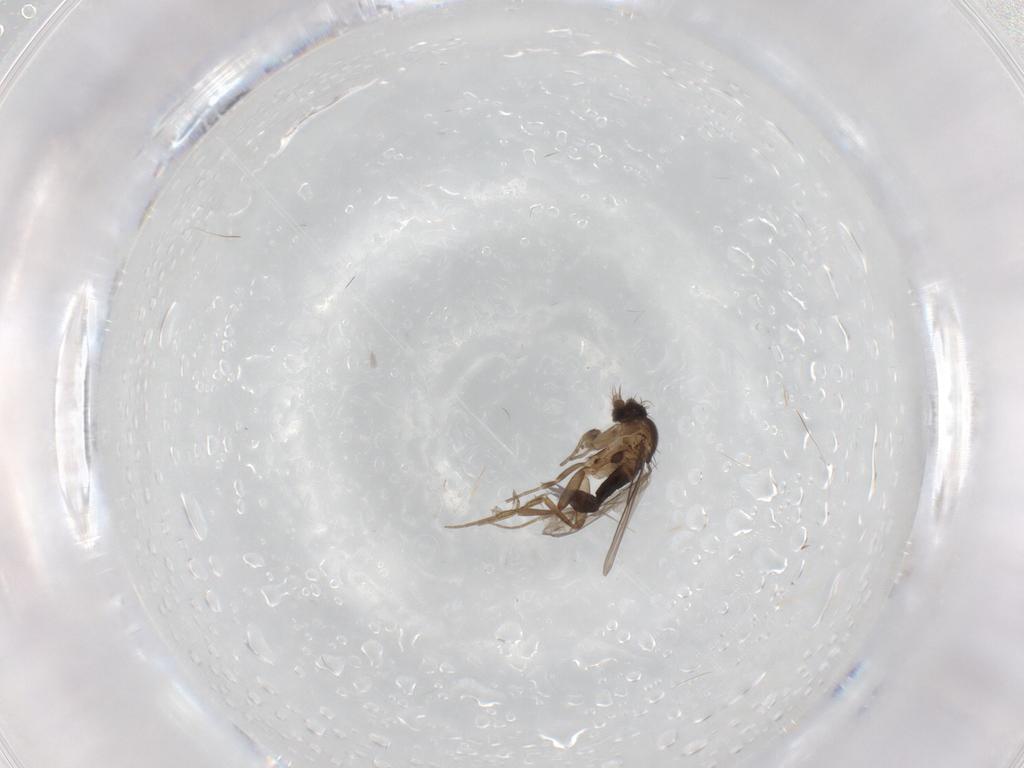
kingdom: Animalia
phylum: Arthropoda
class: Insecta
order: Diptera
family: Phoridae
